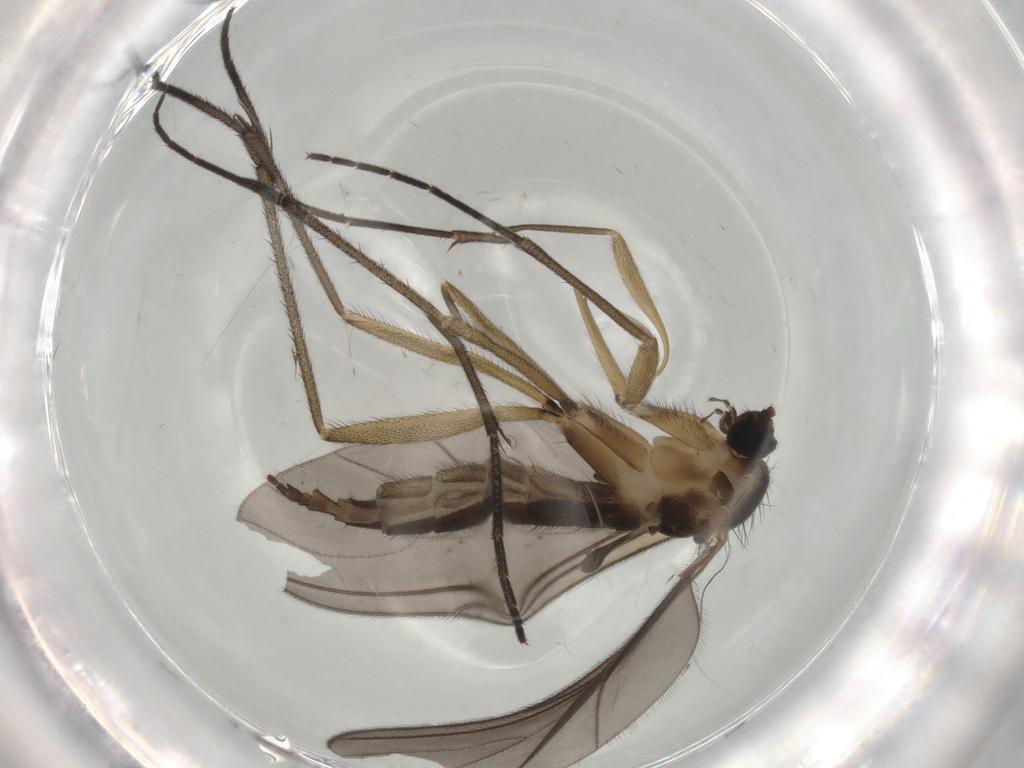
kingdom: Animalia
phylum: Arthropoda
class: Insecta
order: Diptera
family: Sciaridae
